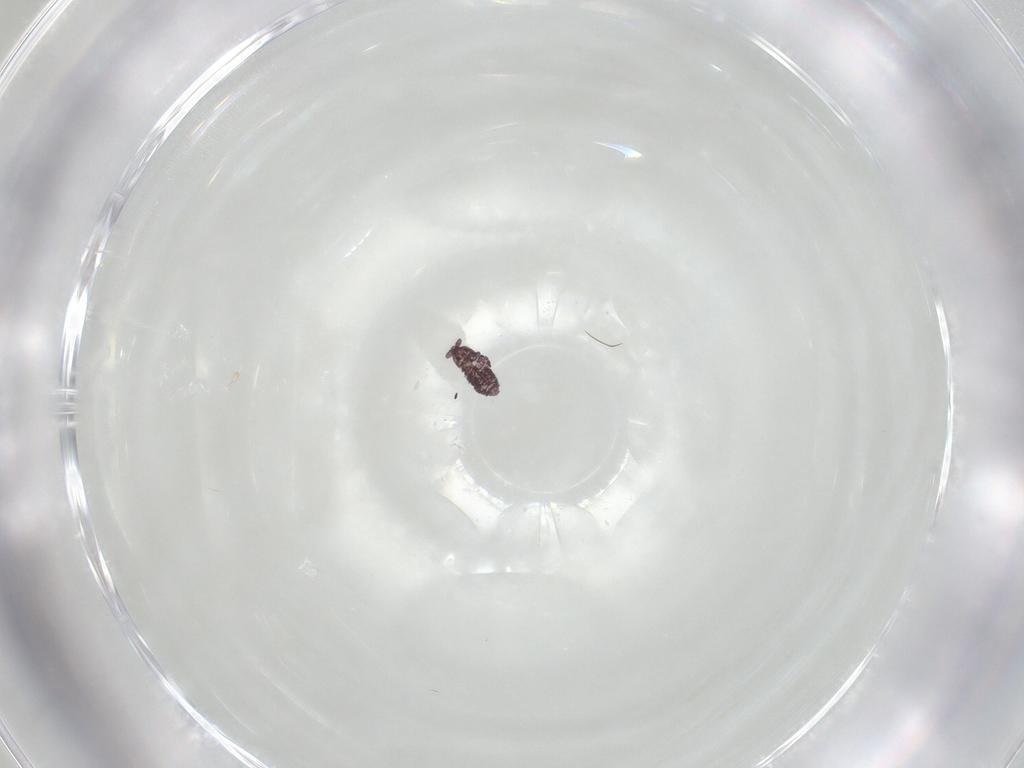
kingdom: Animalia
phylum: Arthropoda
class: Collembola
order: Poduromorpha
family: Hypogastruridae
